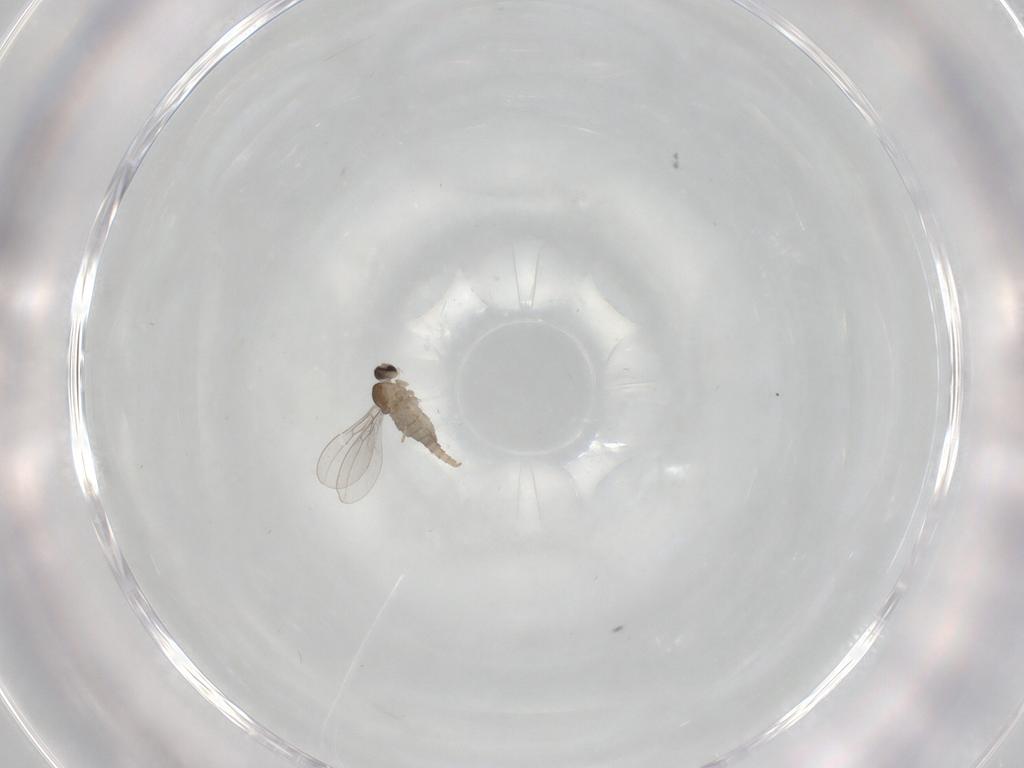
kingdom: Animalia
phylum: Arthropoda
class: Insecta
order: Diptera
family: Cecidomyiidae
